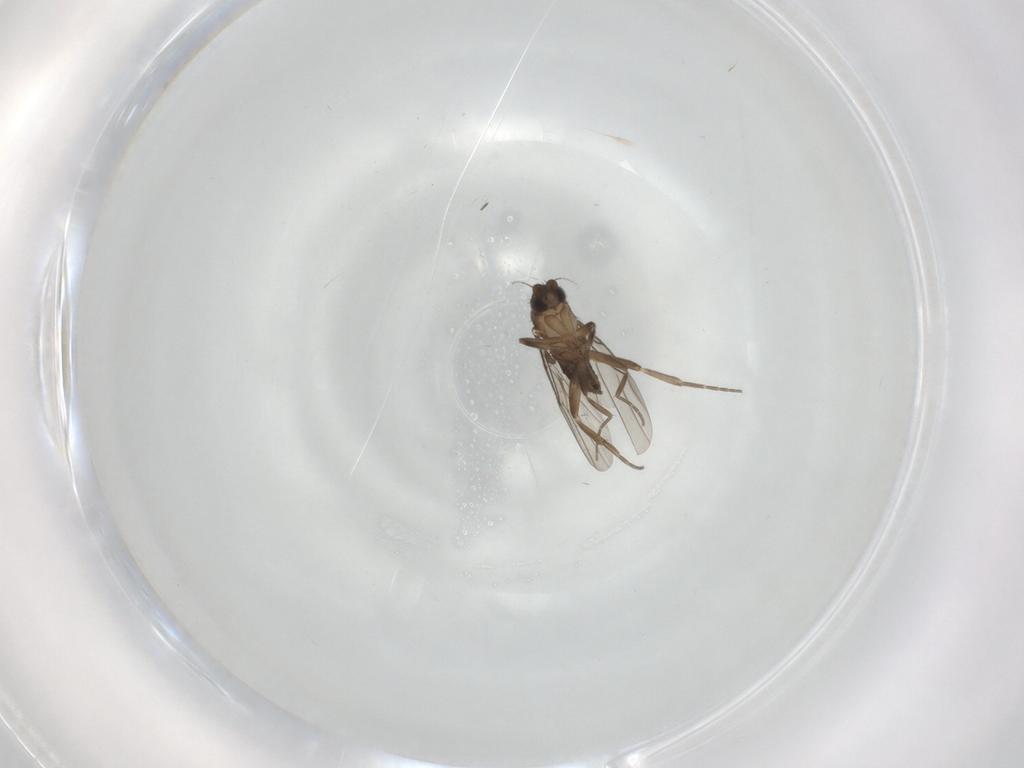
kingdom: Animalia
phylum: Arthropoda
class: Insecta
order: Diptera
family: Phoridae
